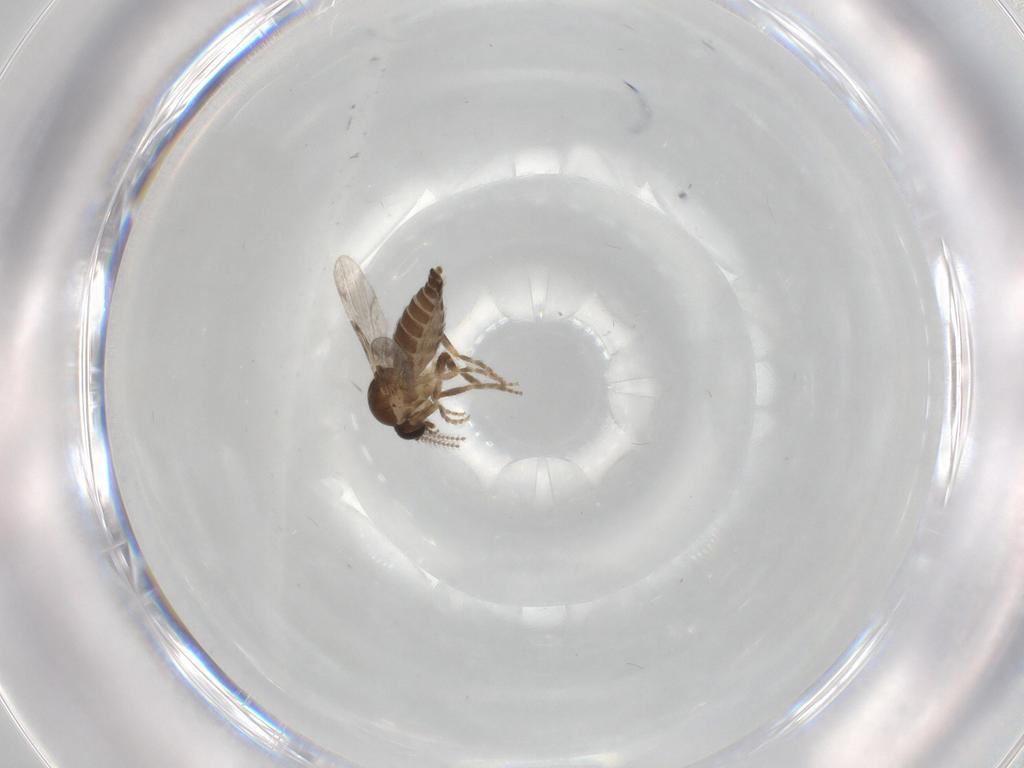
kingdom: Animalia
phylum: Arthropoda
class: Insecta
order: Diptera
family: Ceratopogonidae
